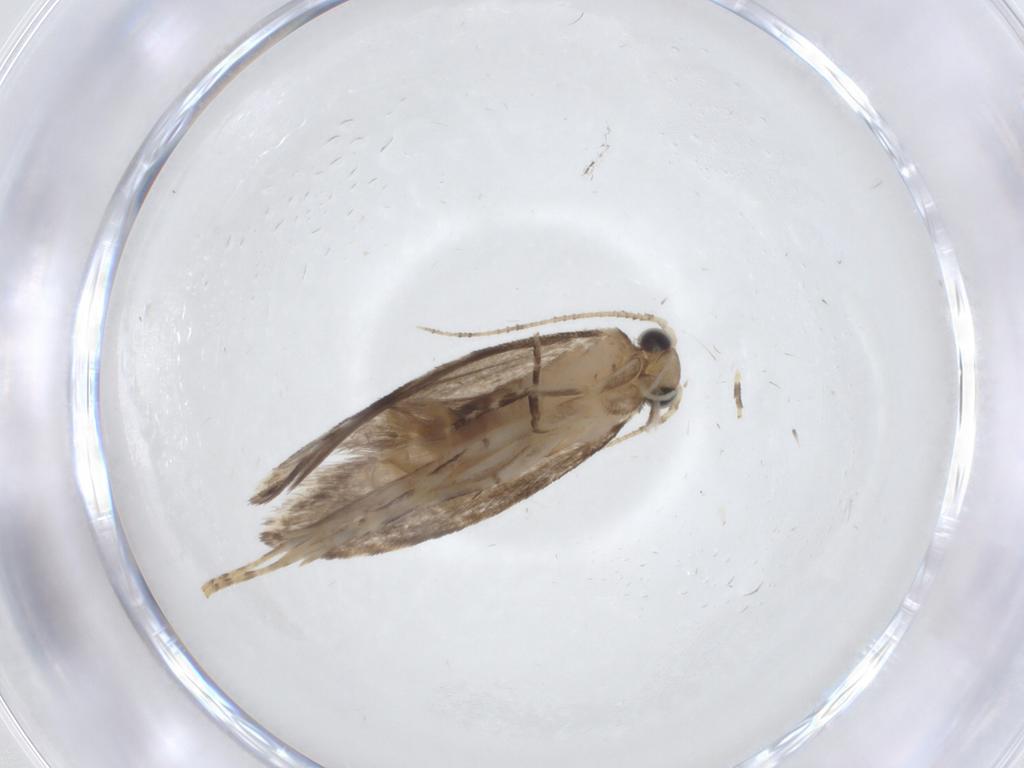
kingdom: Animalia
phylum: Arthropoda
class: Insecta
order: Lepidoptera
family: Tineidae
